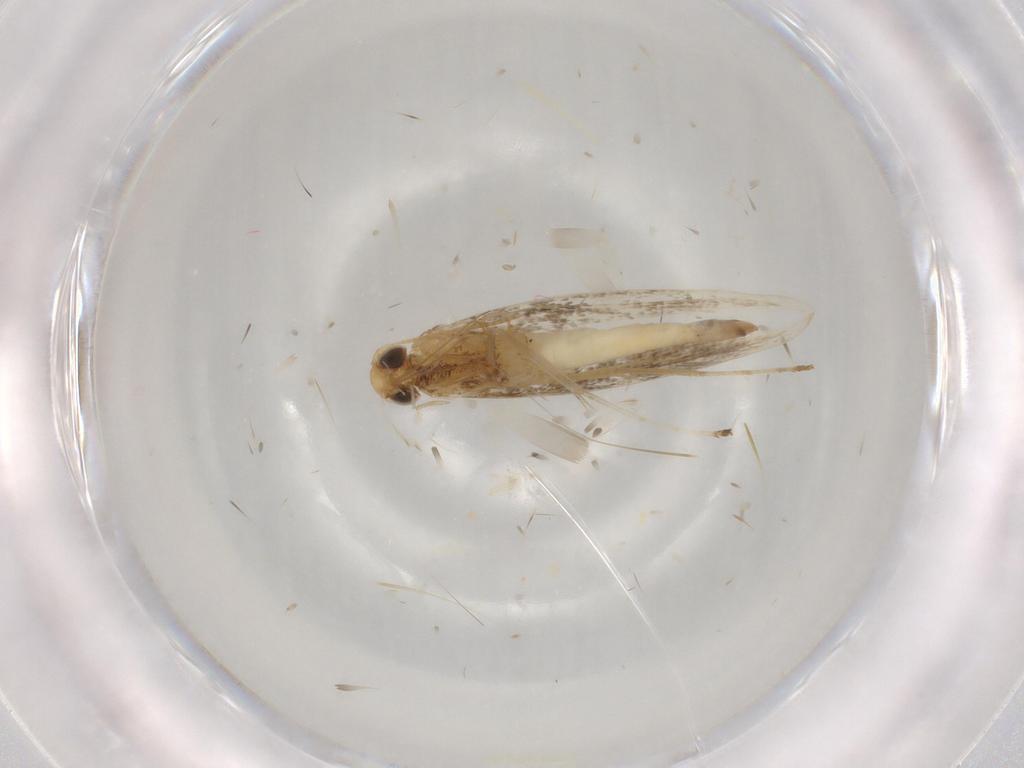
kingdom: Animalia
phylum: Arthropoda
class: Insecta
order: Lepidoptera
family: Gracillariidae
